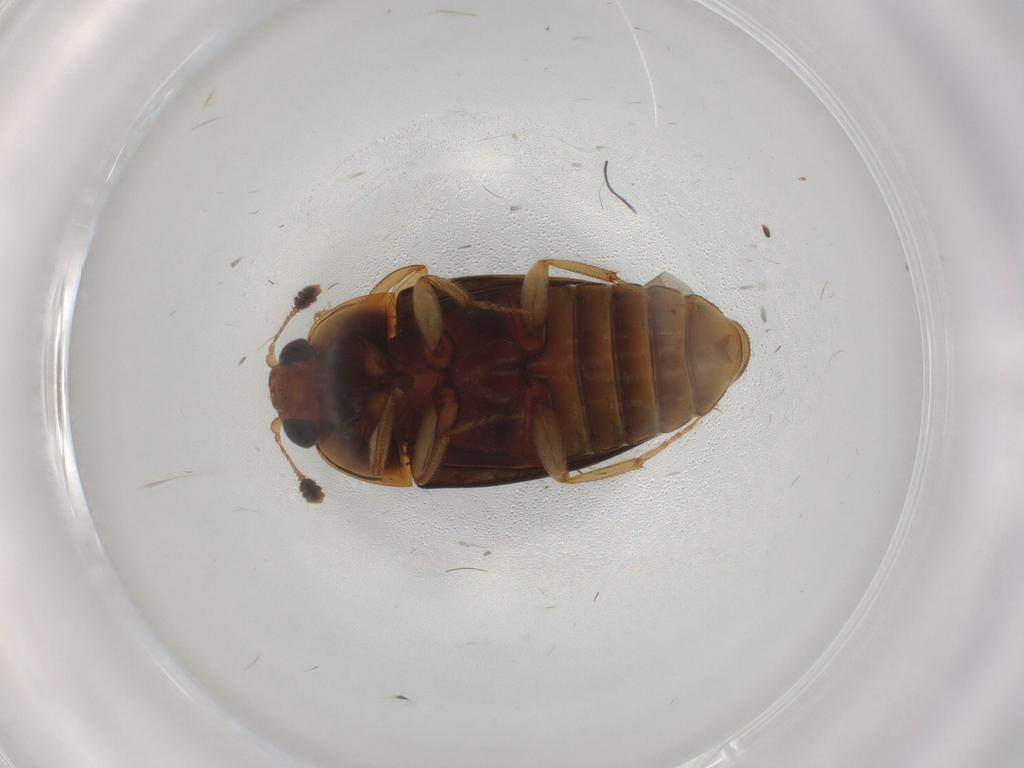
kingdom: Animalia
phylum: Arthropoda
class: Insecta
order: Coleoptera
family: Nitidulidae
